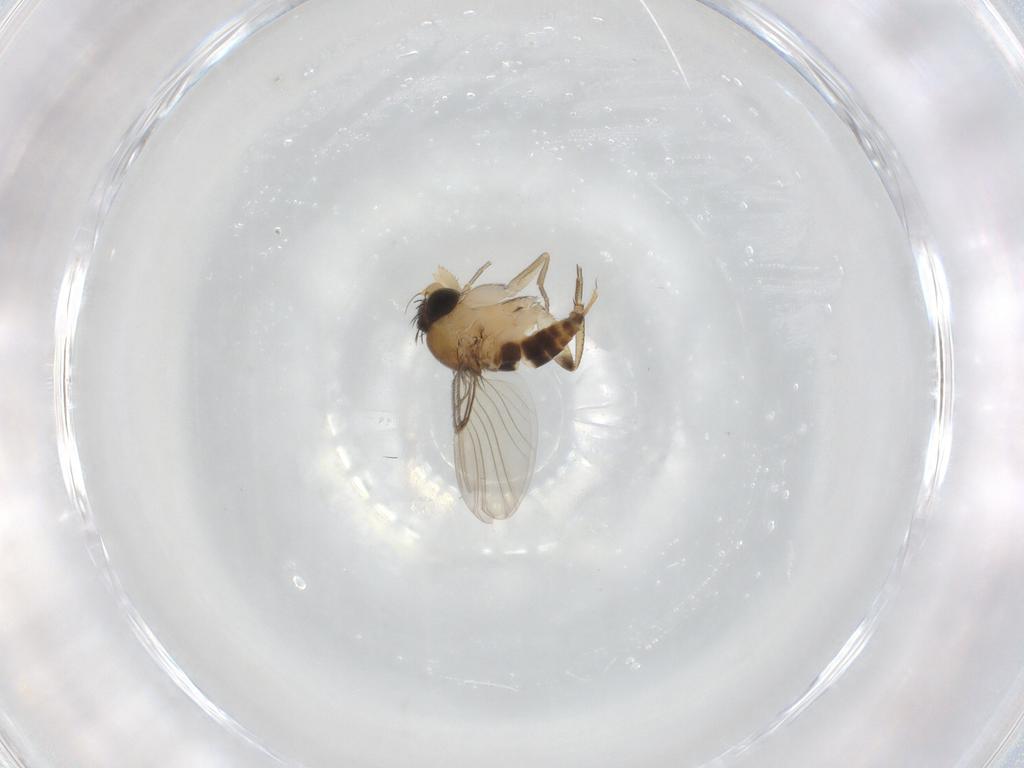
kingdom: Animalia
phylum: Arthropoda
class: Insecta
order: Diptera
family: Phoridae
